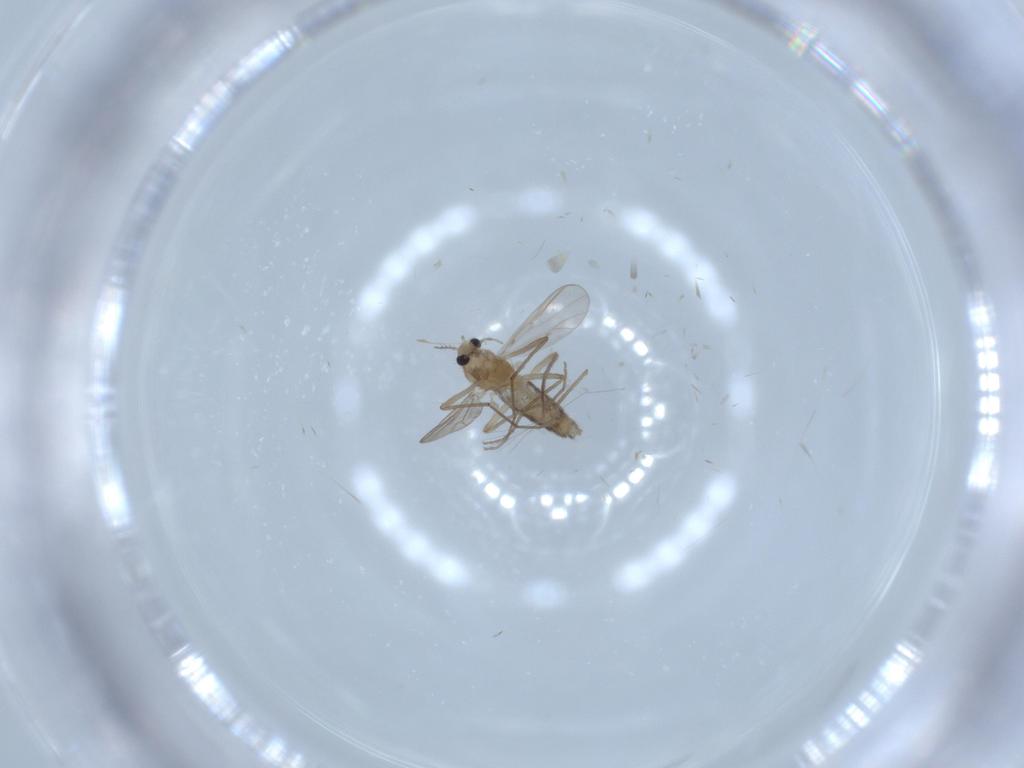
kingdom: Animalia
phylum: Arthropoda
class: Insecta
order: Diptera
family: Chironomidae
